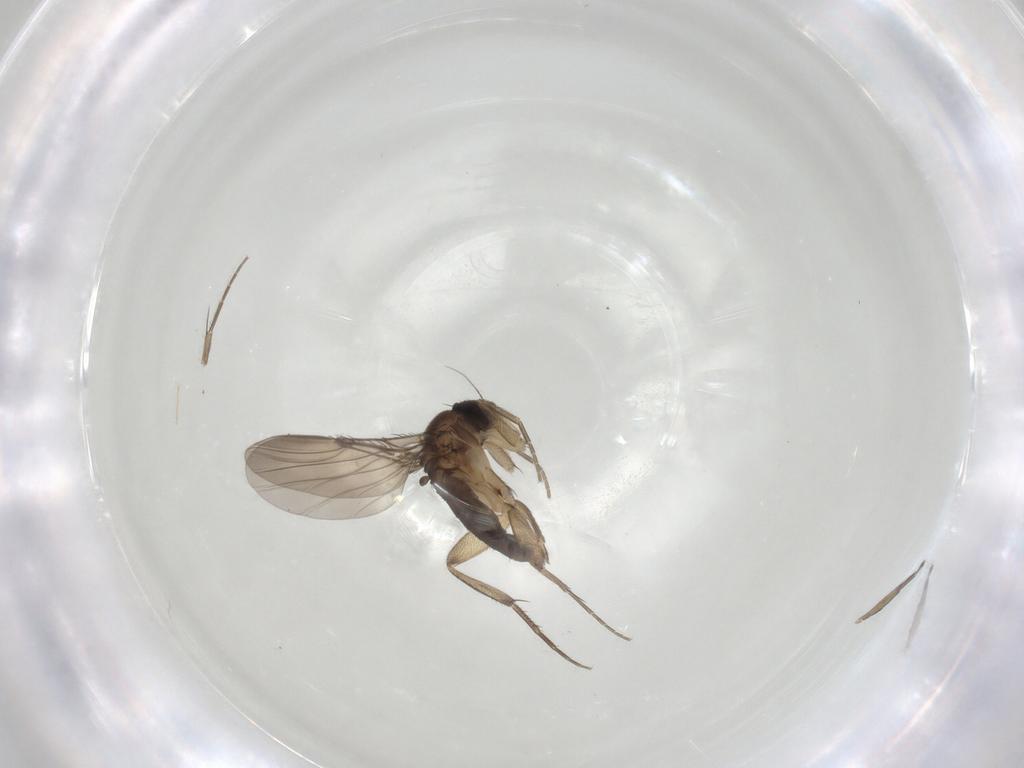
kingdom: Animalia
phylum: Arthropoda
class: Insecta
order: Diptera
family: Phoridae
